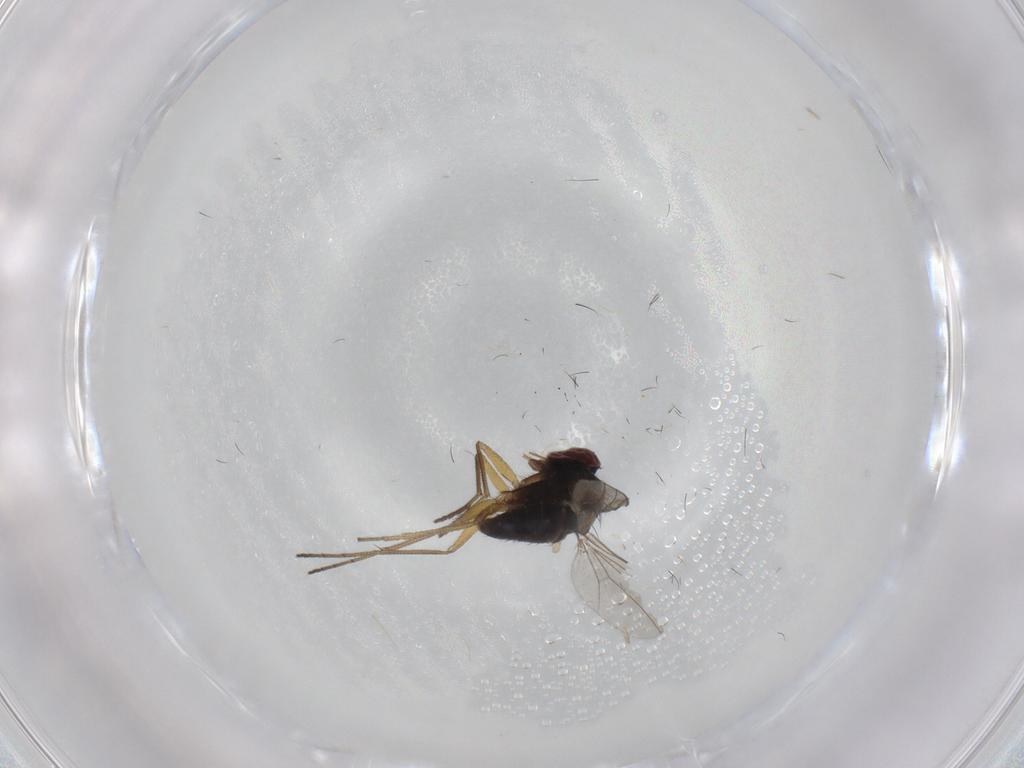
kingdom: Animalia
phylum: Arthropoda
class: Insecta
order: Diptera
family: Dolichopodidae
